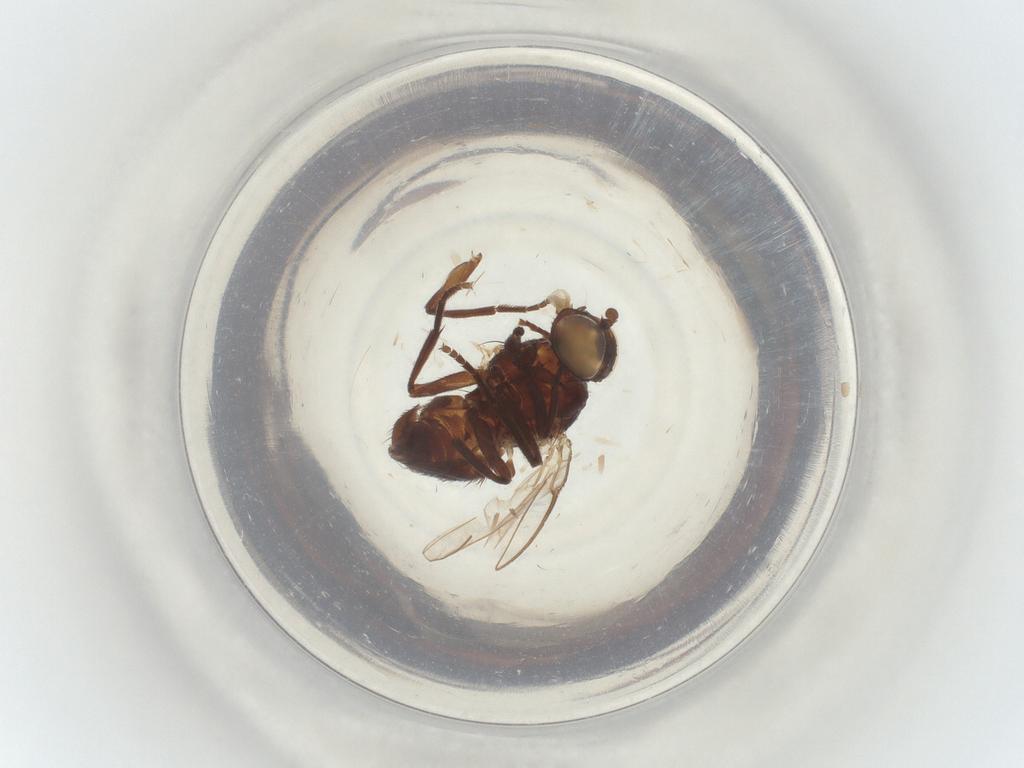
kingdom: Animalia
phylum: Arthropoda
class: Insecta
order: Diptera
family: Agromyzidae
